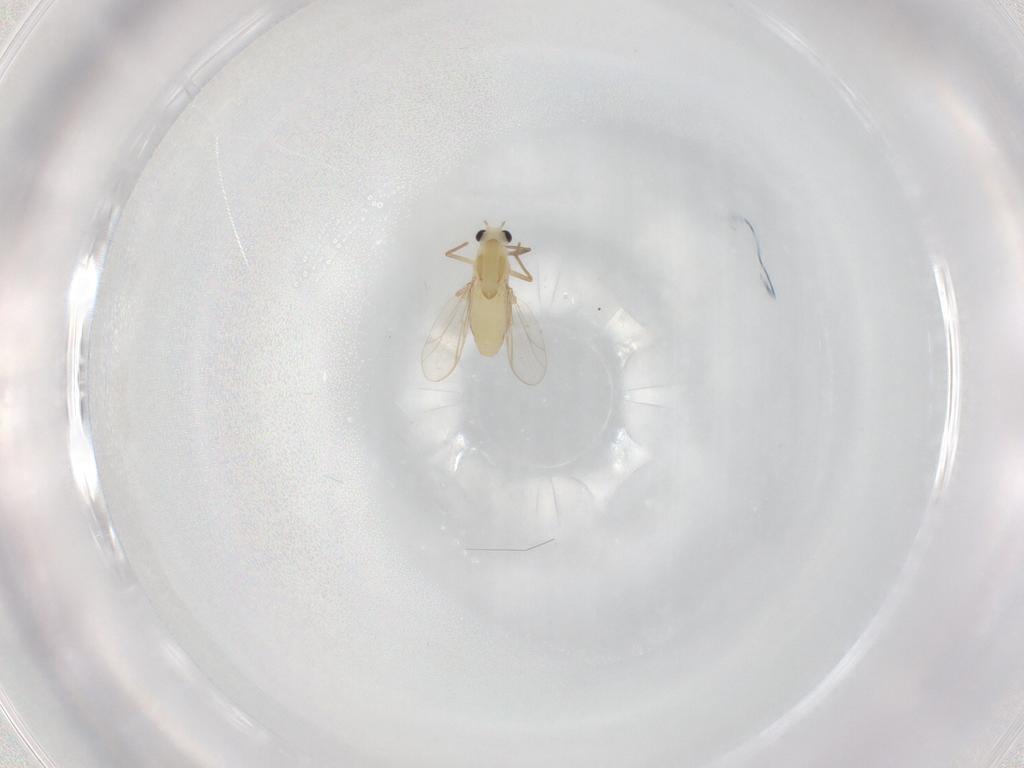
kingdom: Animalia
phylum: Arthropoda
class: Insecta
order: Diptera
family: Chironomidae
